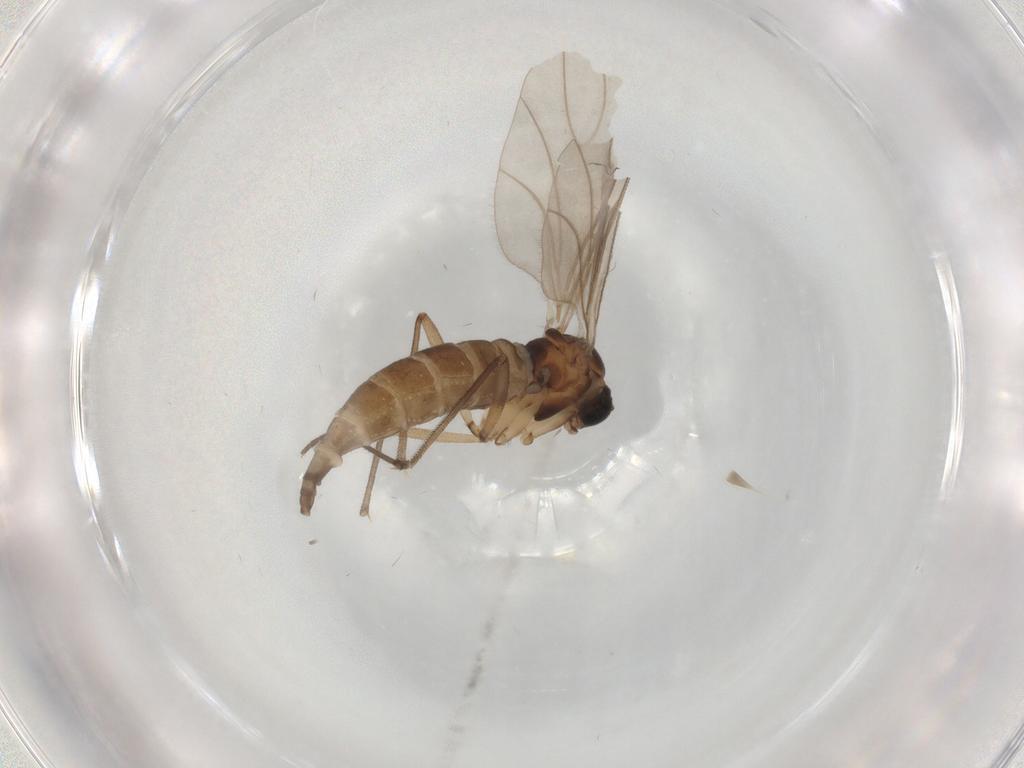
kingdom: Animalia
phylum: Arthropoda
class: Insecta
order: Diptera
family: Sciaridae
